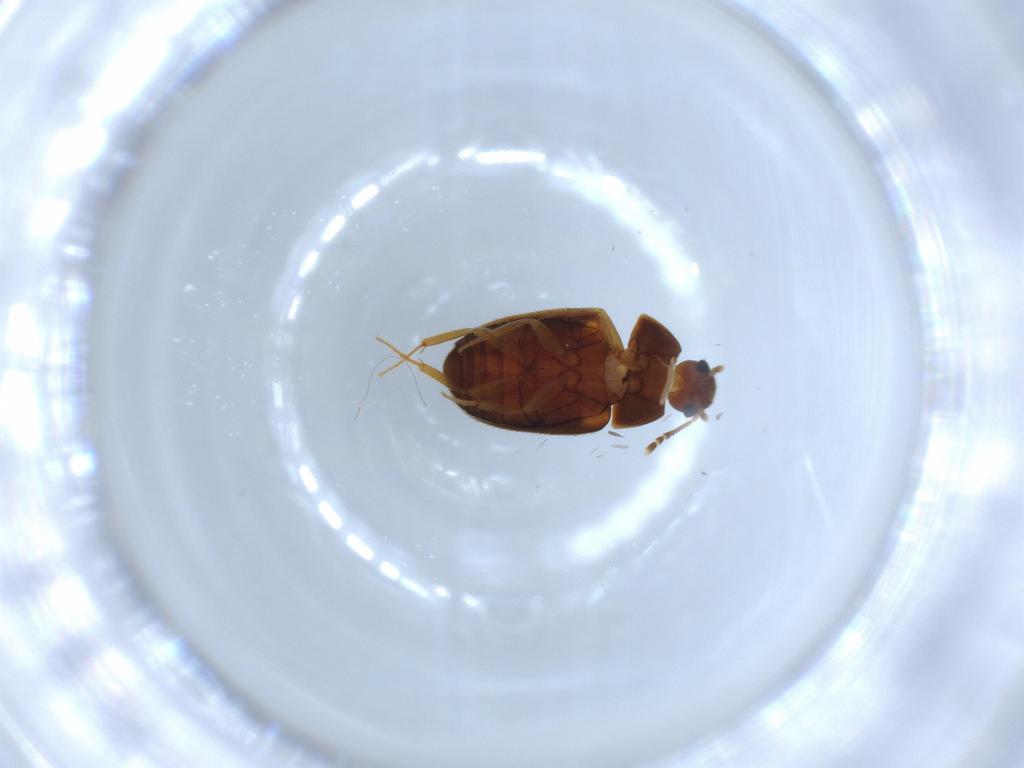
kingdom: Animalia
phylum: Arthropoda
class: Insecta
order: Coleoptera
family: Mycetophagidae
